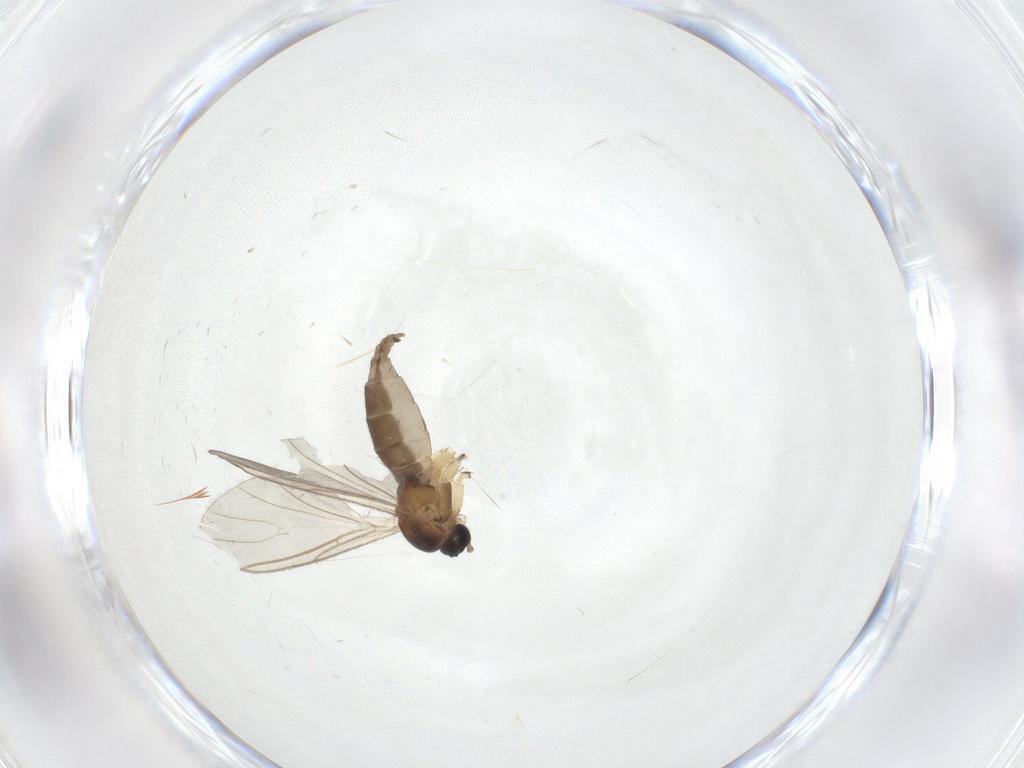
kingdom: Animalia
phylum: Arthropoda
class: Insecta
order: Diptera
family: Sciaridae
